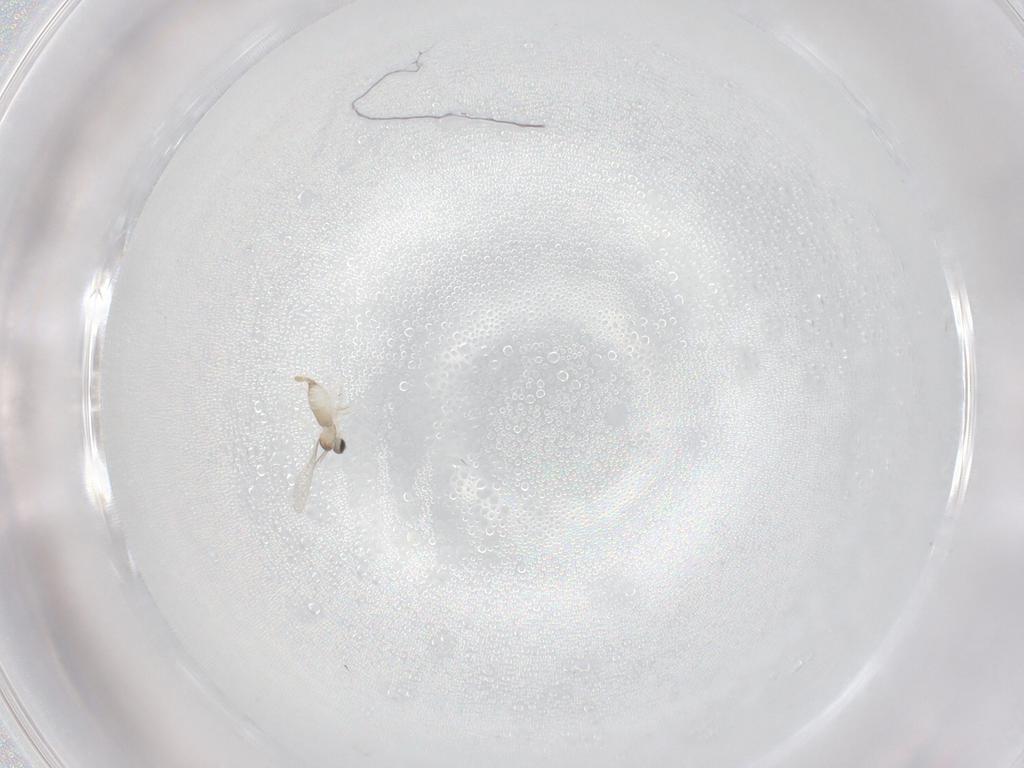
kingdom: Animalia
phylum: Arthropoda
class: Insecta
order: Diptera
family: Ceratopogonidae
